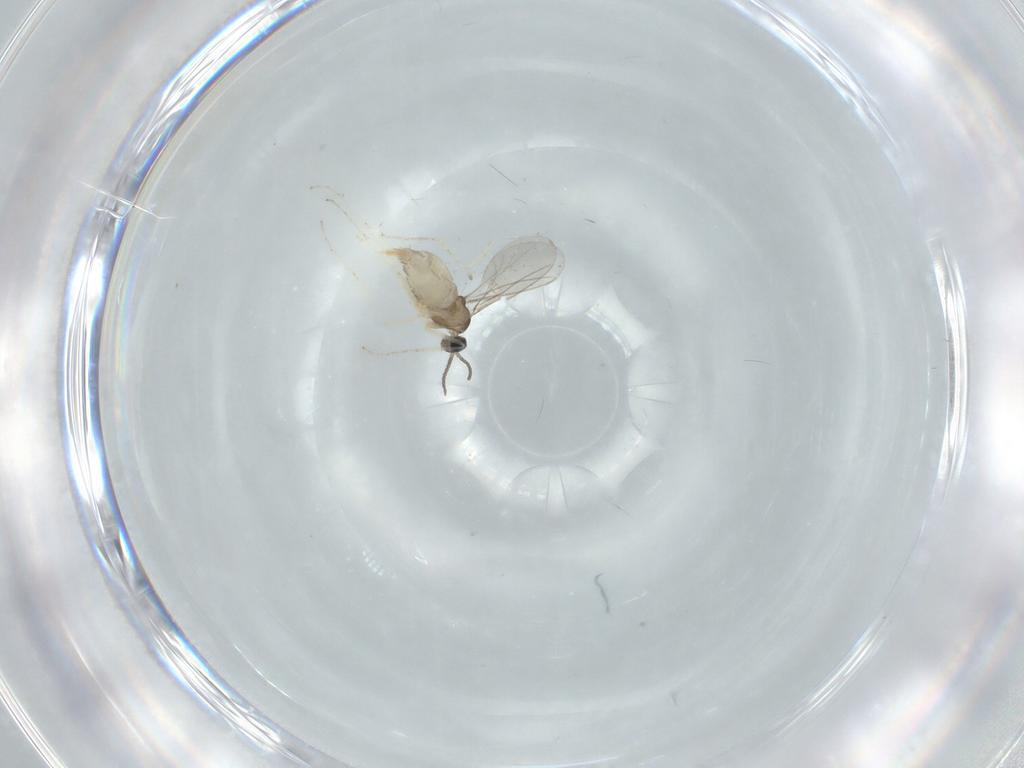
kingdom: Animalia
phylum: Arthropoda
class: Insecta
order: Diptera
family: Cecidomyiidae
